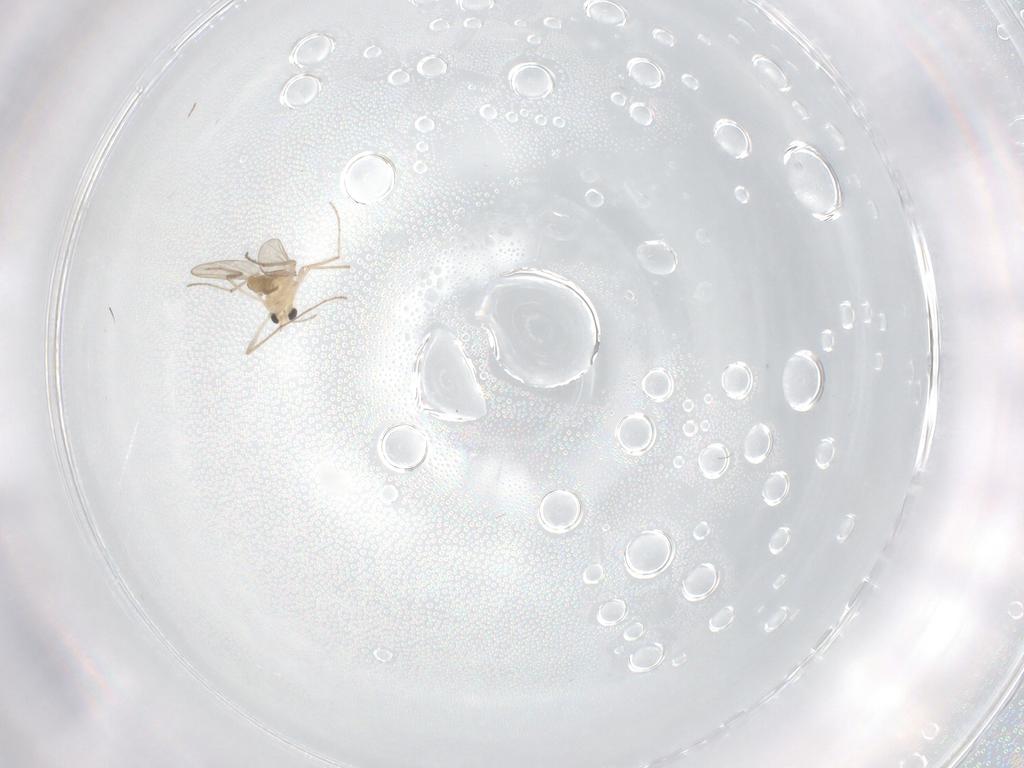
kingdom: Animalia
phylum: Arthropoda
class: Insecta
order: Diptera
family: Chironomidae
